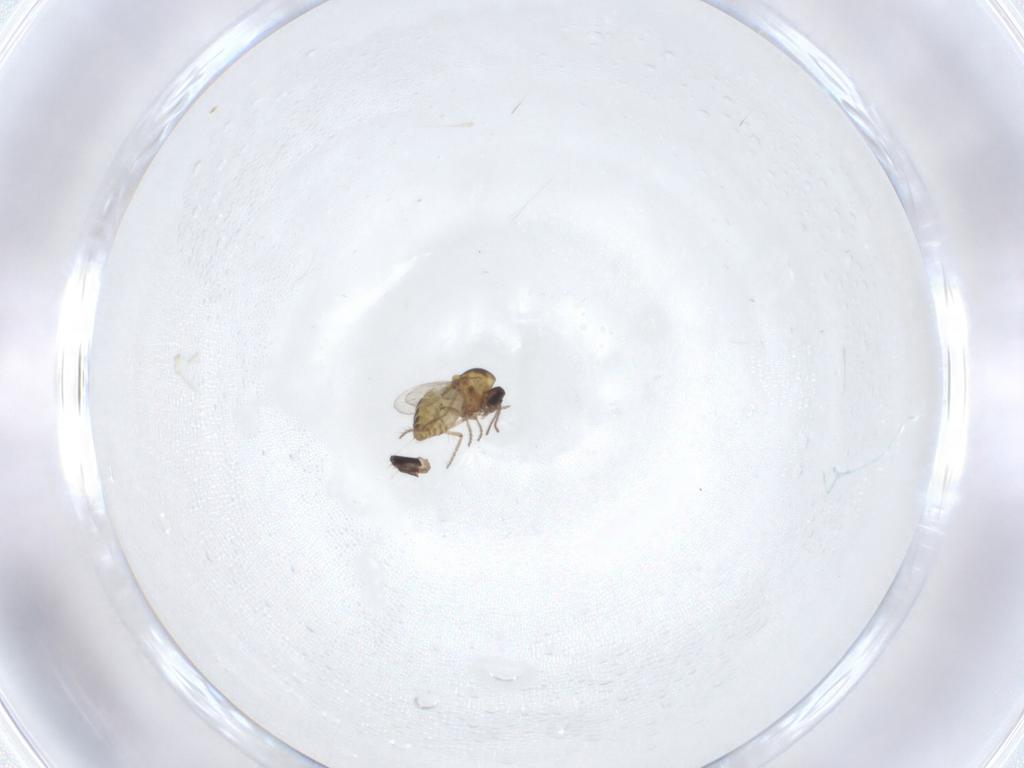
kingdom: Animalia
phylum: Arthropoda
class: Insecta
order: Diptera
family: Ceratopogonidae
